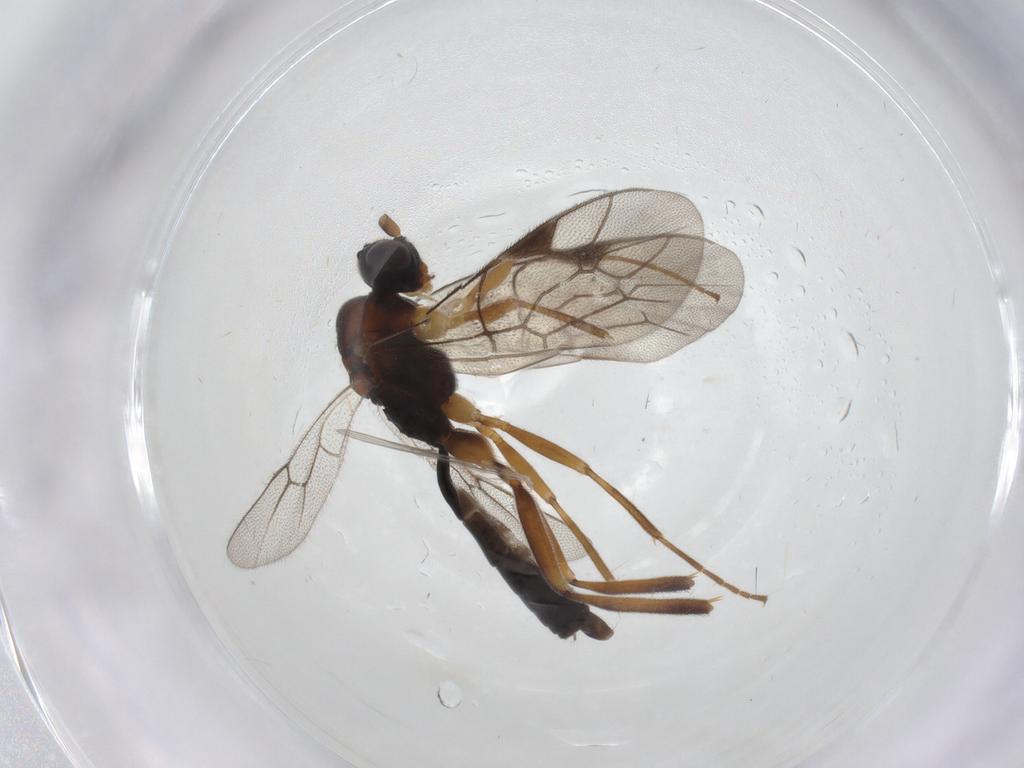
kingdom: Animalia
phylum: Arthropoda
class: Insecta
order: Hymenoptera
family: Ichneumonidae
